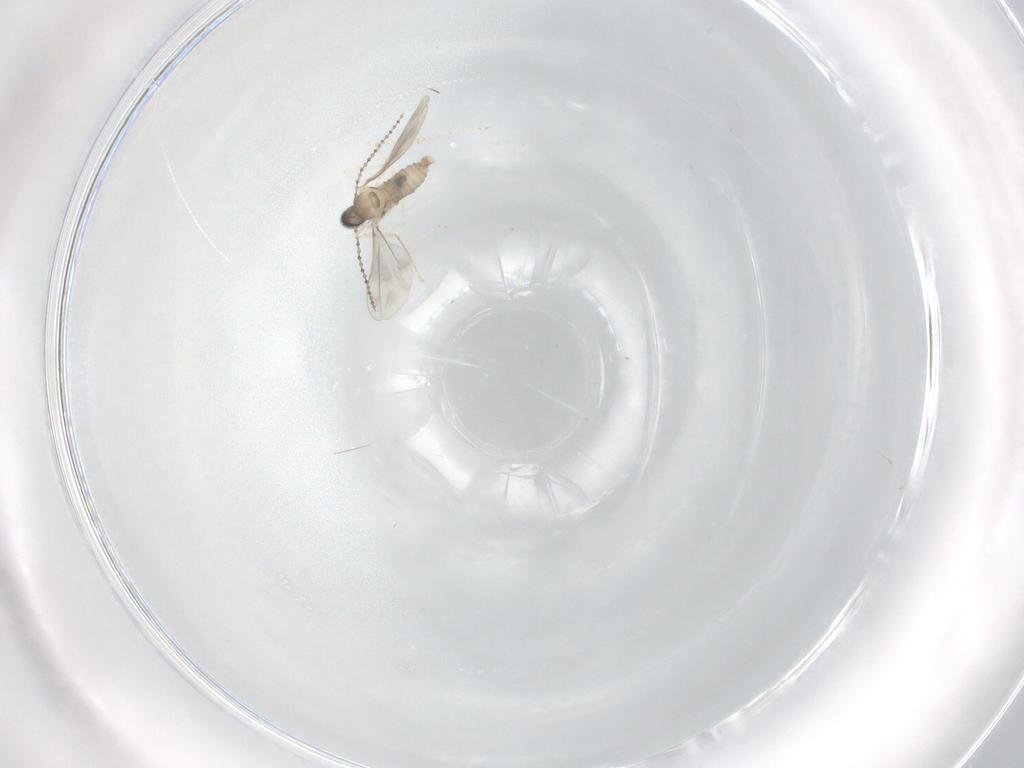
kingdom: Animalia
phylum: Arthropoda
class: Insecta
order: Diptera
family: Cecidomyiidae
